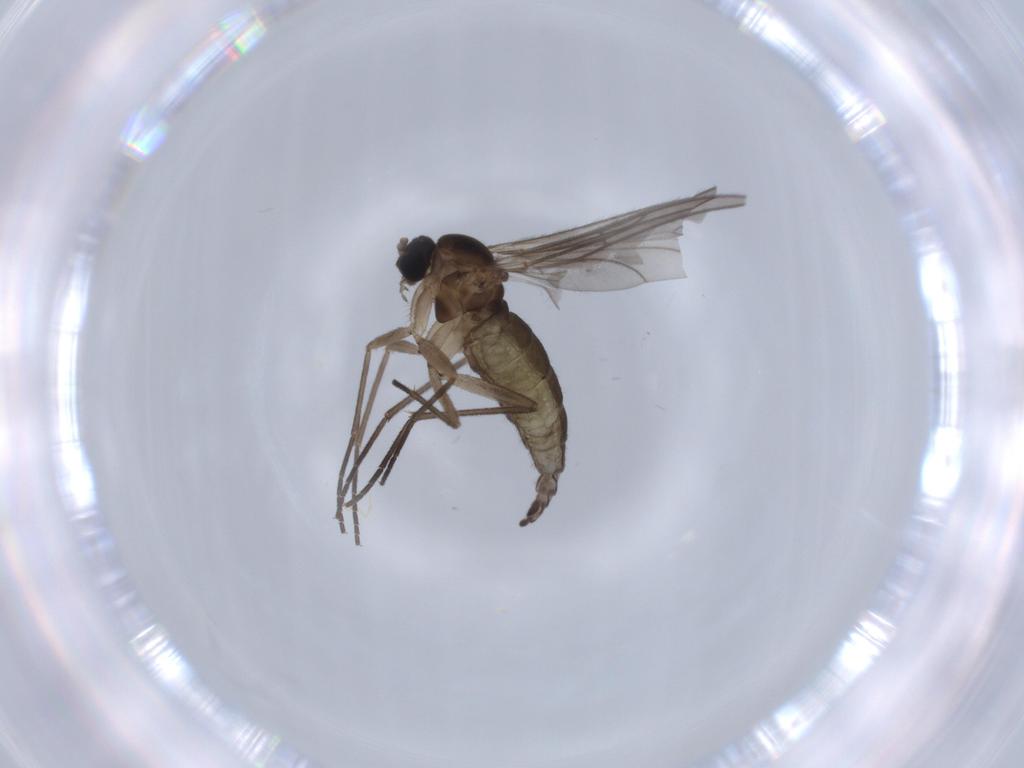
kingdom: Animalia
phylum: Arthropoda
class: Insecta
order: Diptera
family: Sciaridae
